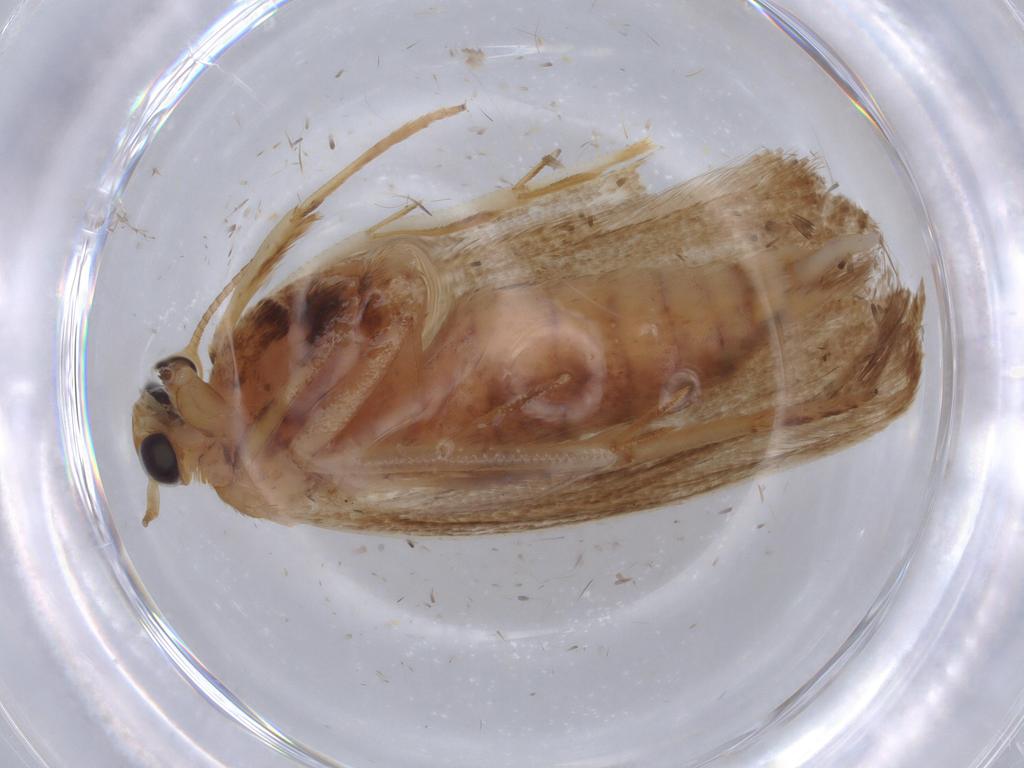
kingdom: Animalia
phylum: Arthropoda
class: Insecta
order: Lepidoptera
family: Blastobasidae
